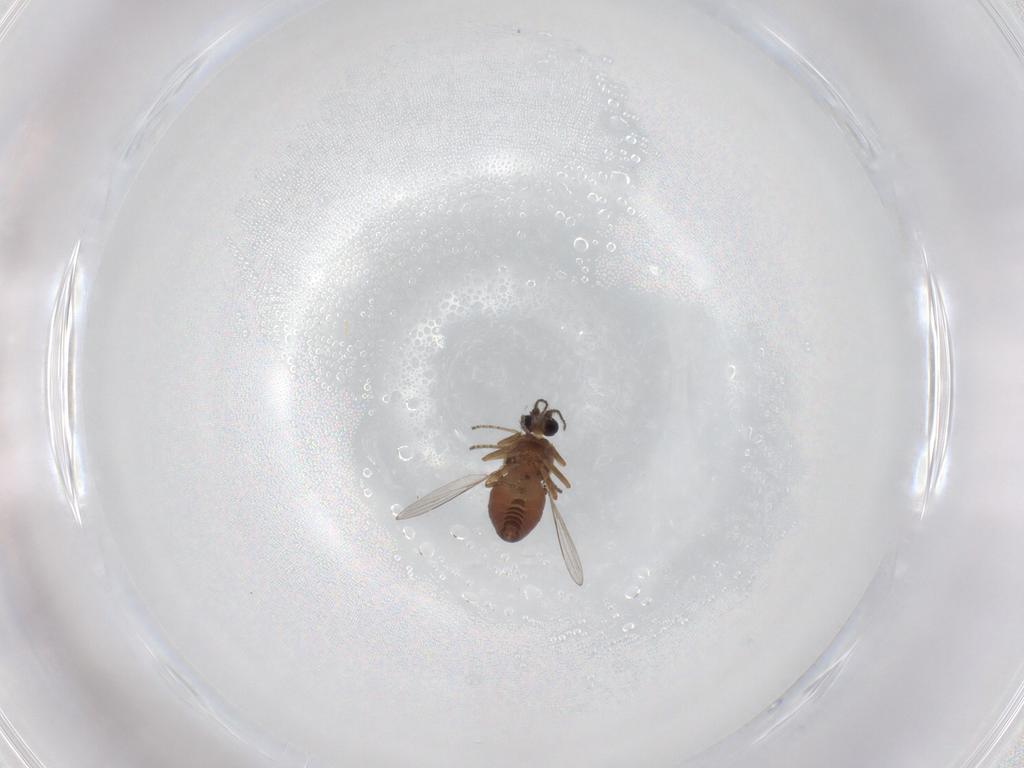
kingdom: Animalia
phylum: Arthropoda
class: Insecta
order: Diptera
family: Ceratopogonidae
